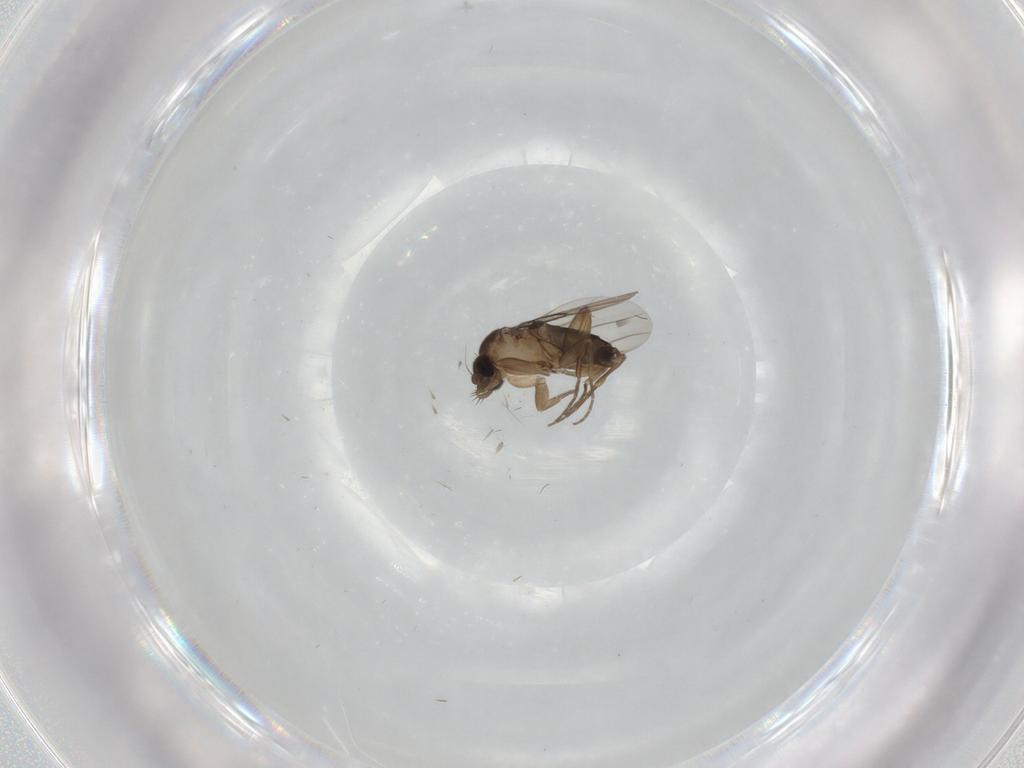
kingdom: Animalia
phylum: Arthropoda
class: Insecta
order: Diptera
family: Phoridae
